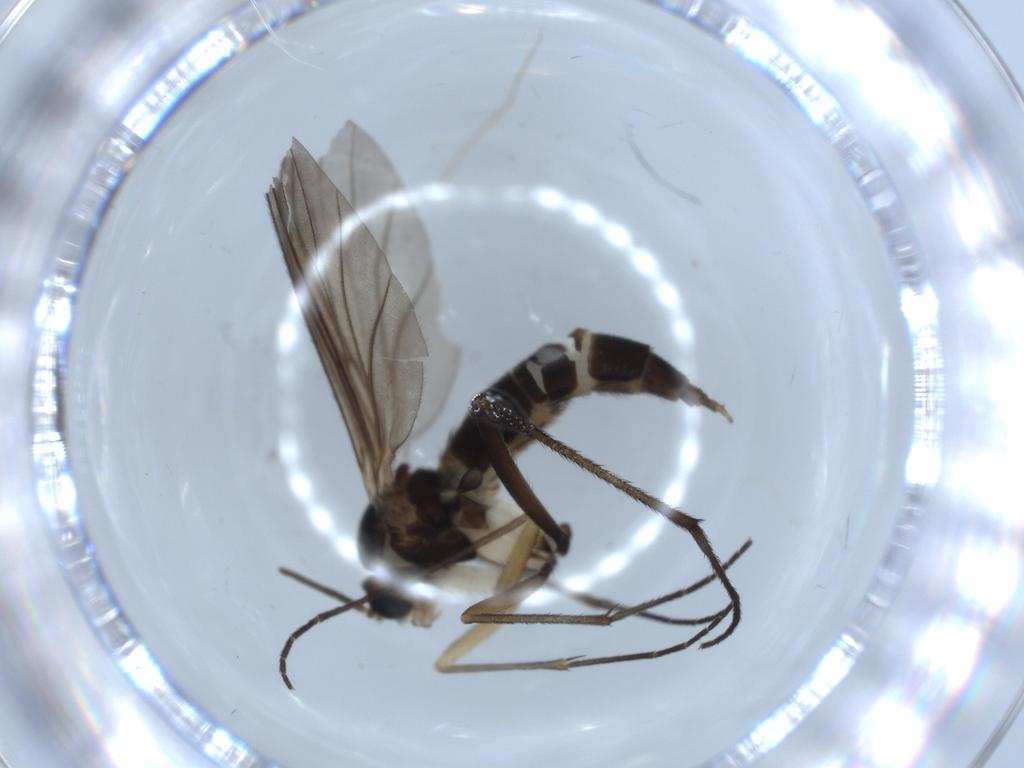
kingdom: Animalia
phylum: Arthropoda
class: Insecta
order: Diptera
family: Sciaridae
